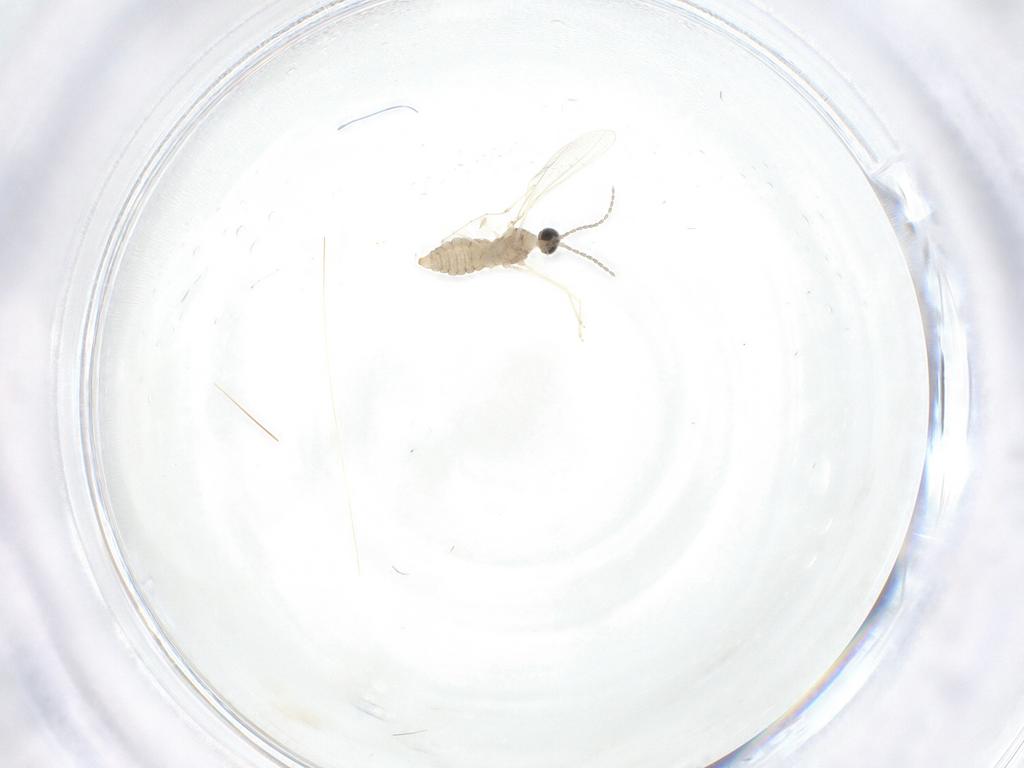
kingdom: Animalia
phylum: Arthropoda
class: Insecta
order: Diptera
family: Cecidomyiidae
